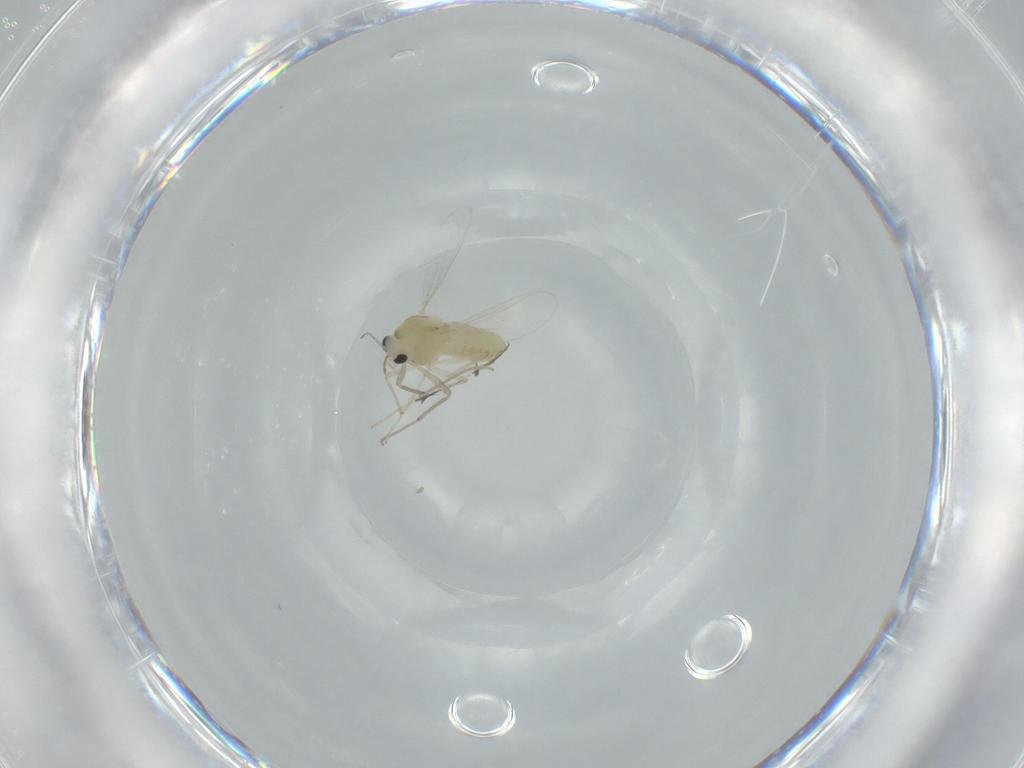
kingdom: Animalia
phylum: Arthropoda
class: Insecta
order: Diptera
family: Chironomidae
